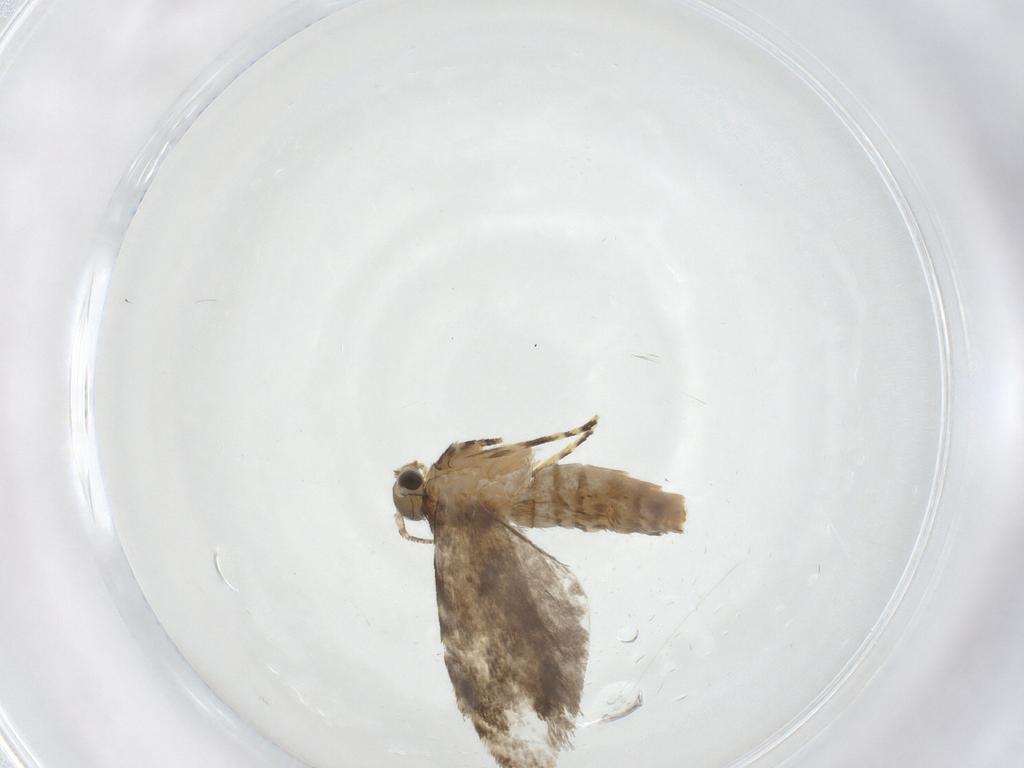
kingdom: Animalia
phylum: Arthropoda
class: Insecta
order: Lepidoptera
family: Tineidae
